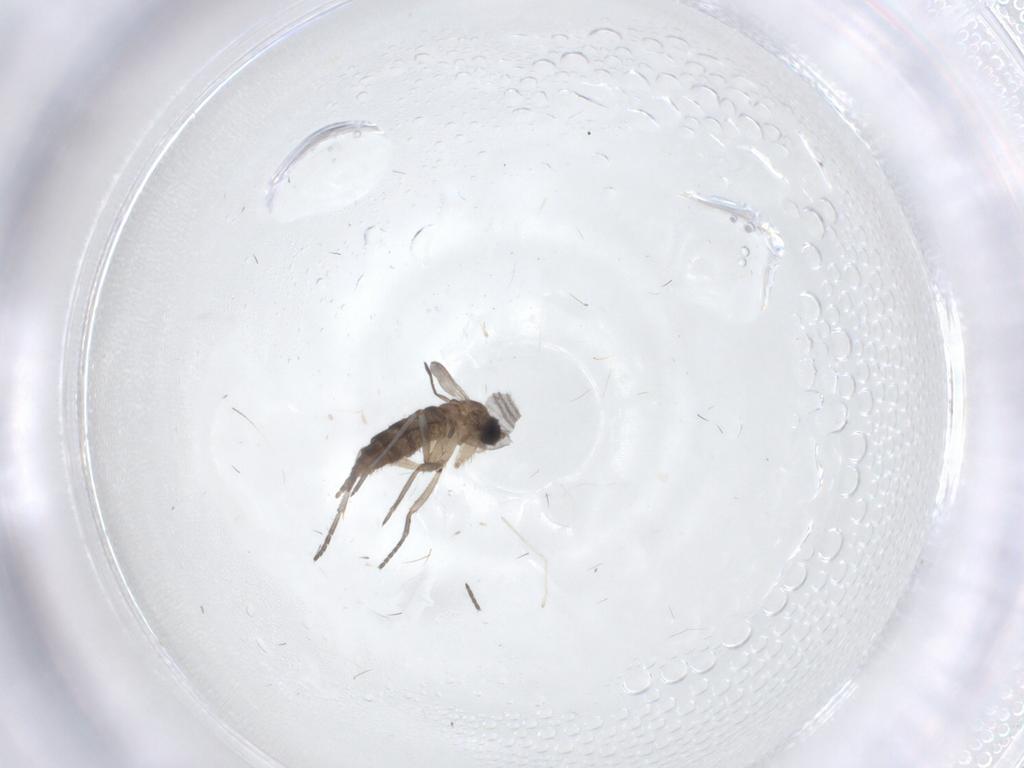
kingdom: Animalia
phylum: Arthropoda
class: Insecta
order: Diptera
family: Sciaridae
